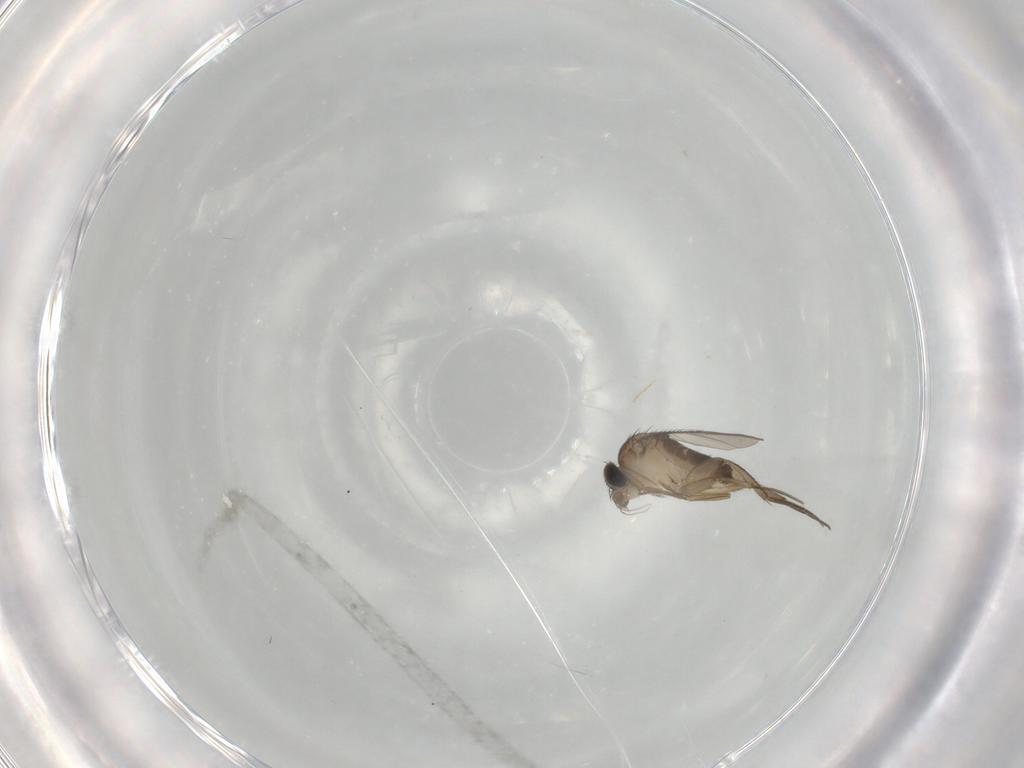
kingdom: Animalia
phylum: Arthropoda
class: Insecta
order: Diptera
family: Phoridae
